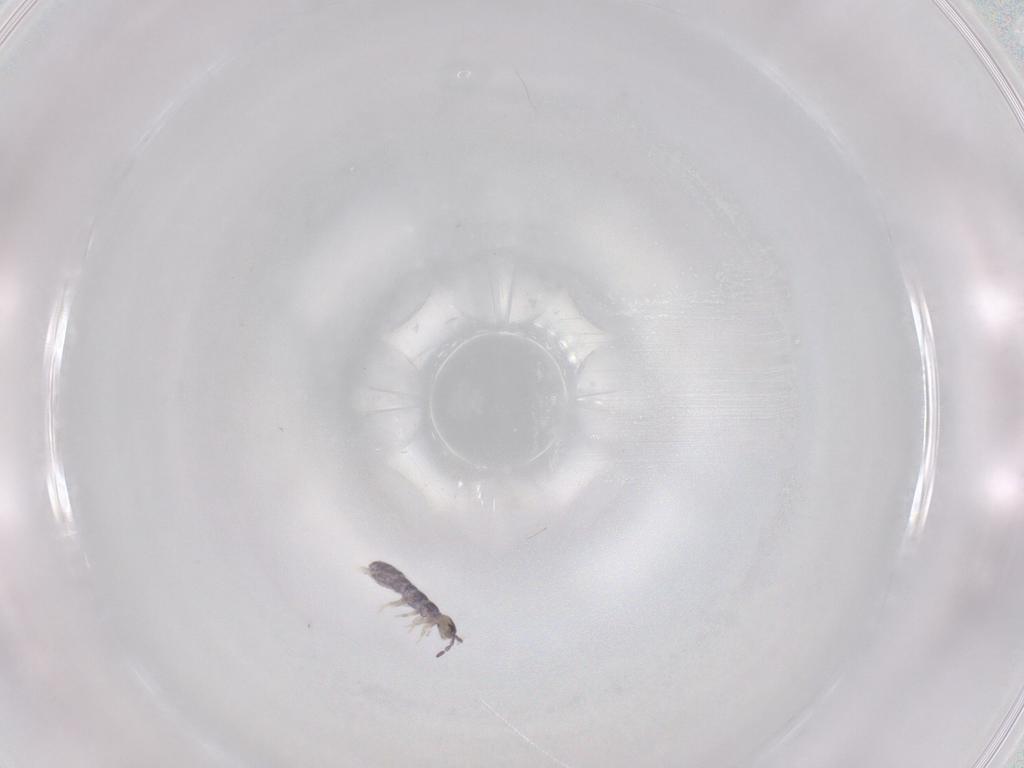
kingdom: Animalia
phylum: Arthropoda
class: Collembola
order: Entomobryomorpha
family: Isotomidae
